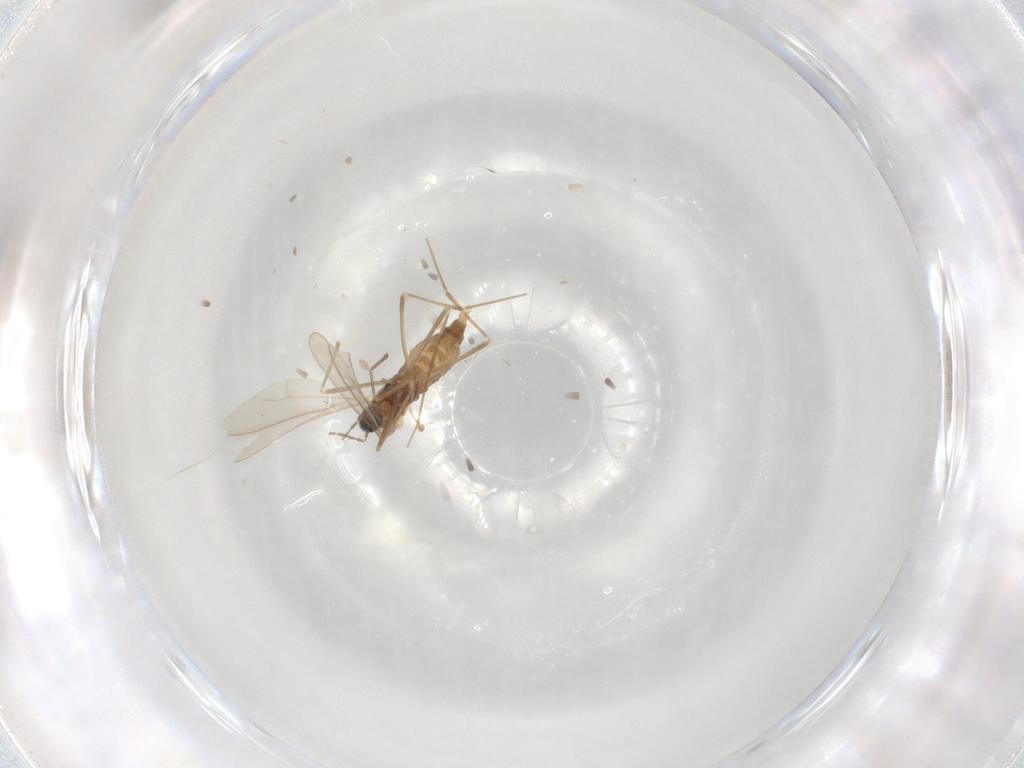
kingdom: Animalia
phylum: Arthropoda
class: Insecta
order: Diptera
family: Cecidomyiidae
